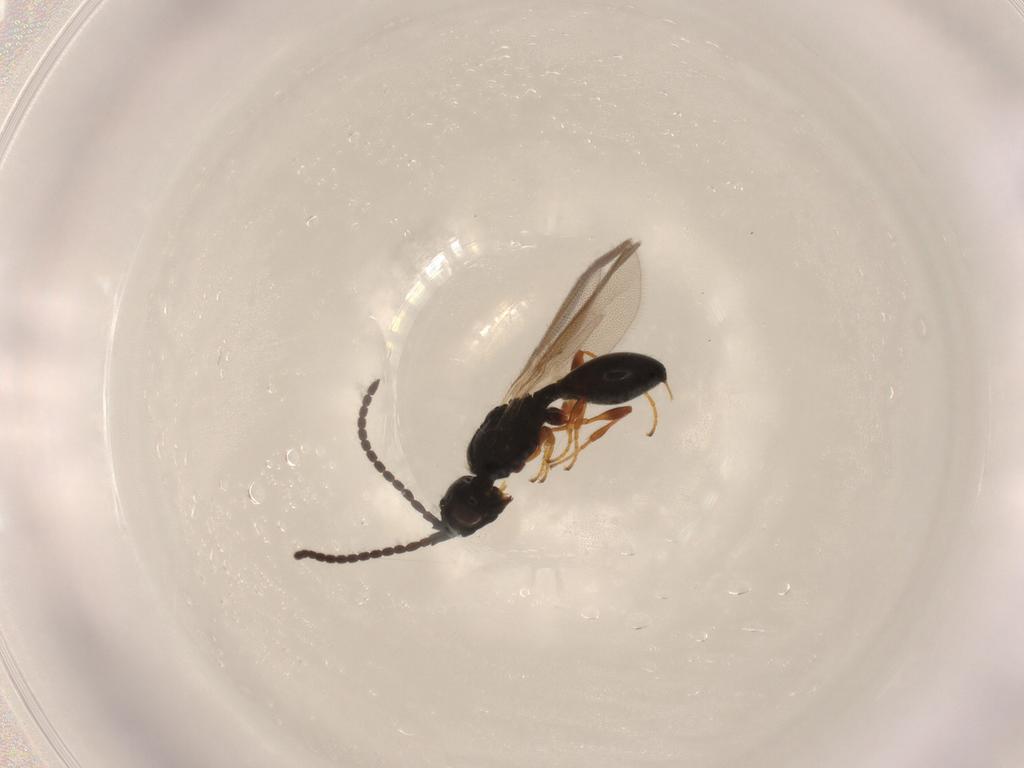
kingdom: Animalia
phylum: Arthropoda
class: Insecta
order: Hymenoptera
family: Diapriidae
